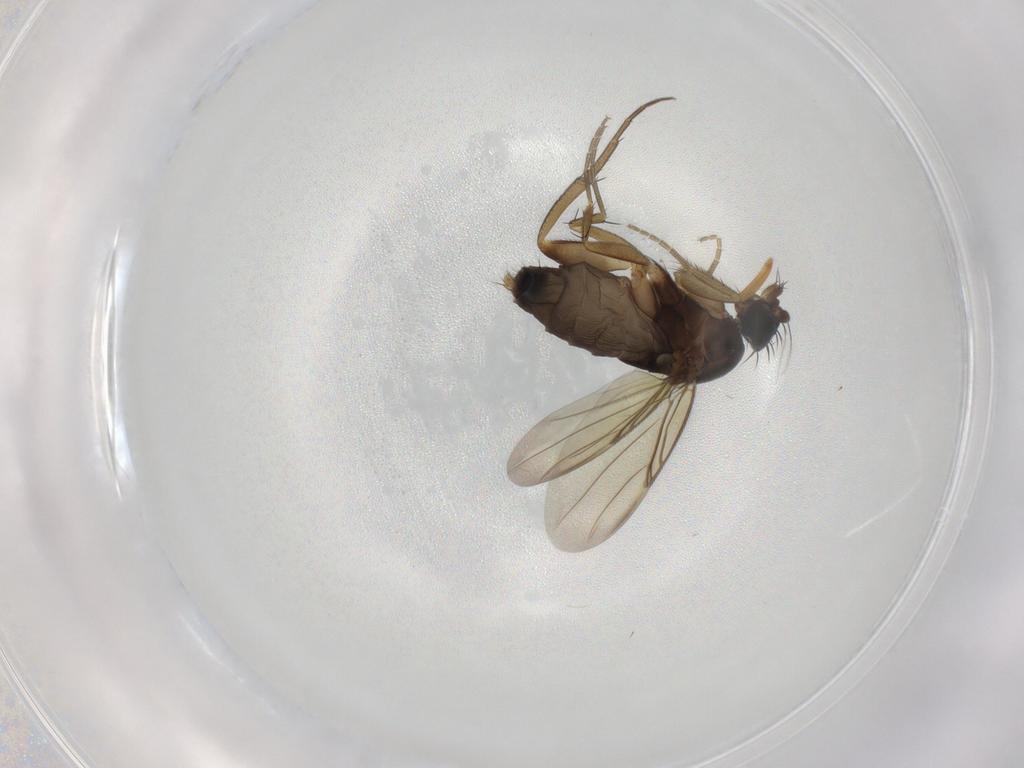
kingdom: Animalia
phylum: Arthropoda
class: Insecta
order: Diptera
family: Phoridae
